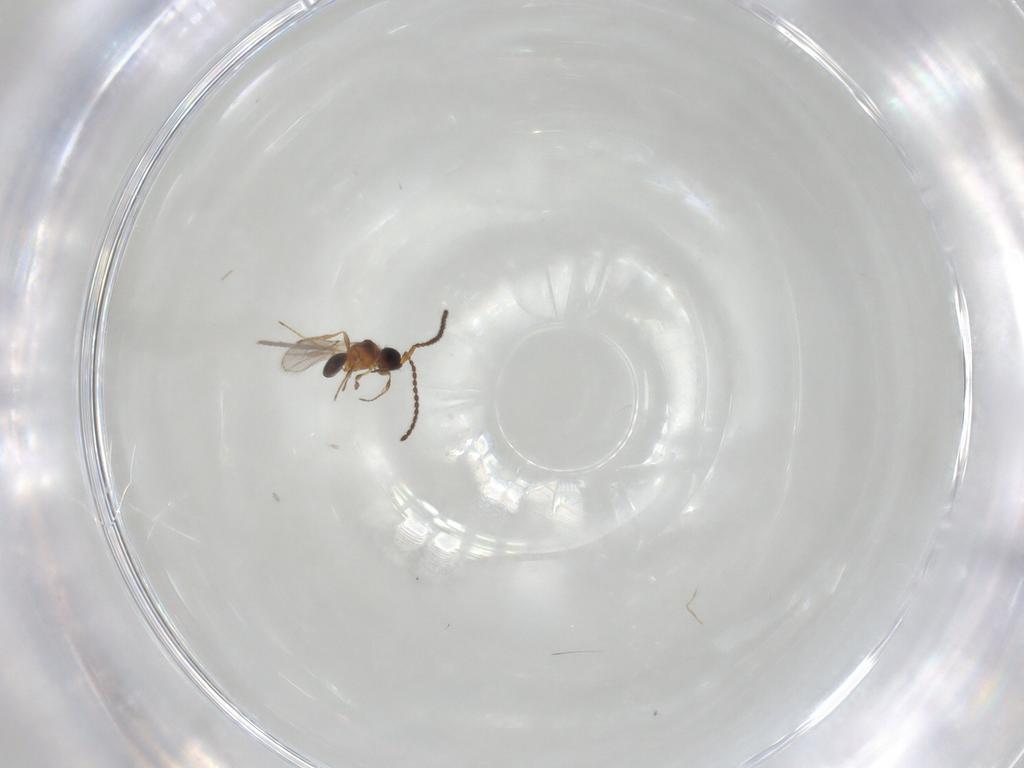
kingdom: Animalia
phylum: Arthropoda
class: Insecta
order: Hymenoptera
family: Diapriidae
